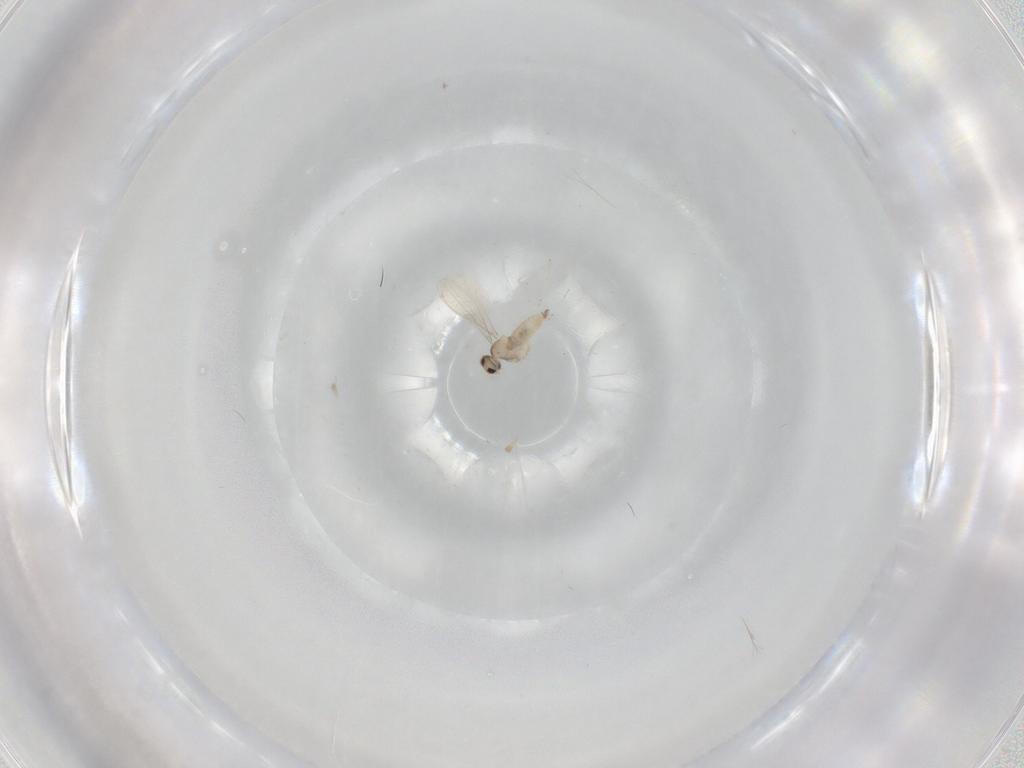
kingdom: Animalia
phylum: Arthropoda
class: Insecta
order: Diptera
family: Cecidomyiidae
